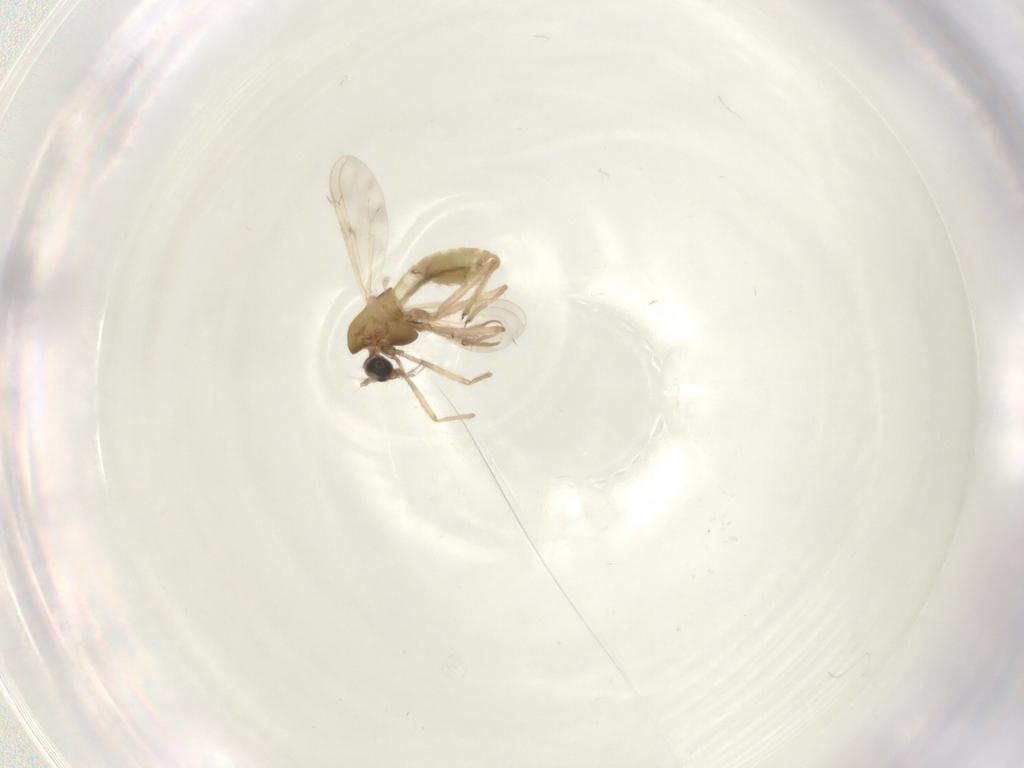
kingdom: Animalia
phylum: Arthropoda
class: Insecta
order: Diptera
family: Chironomidae
